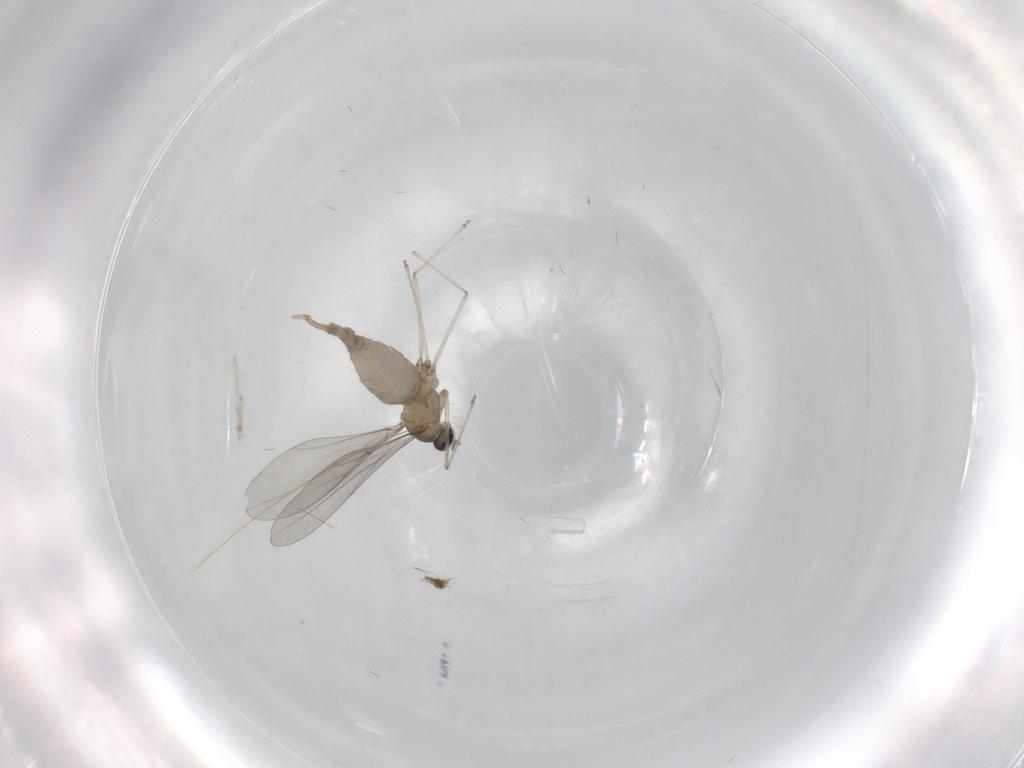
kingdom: Animalia
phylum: Arthropoda
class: Insecta
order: Diptera
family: Cecidomyiidae
